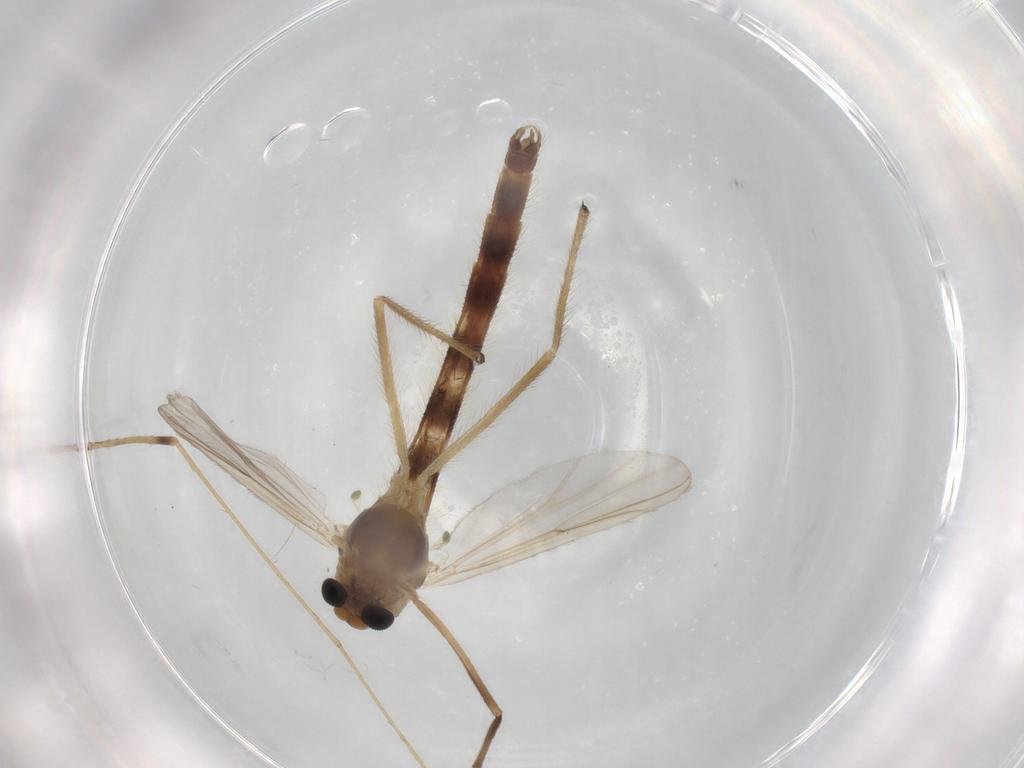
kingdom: Animalia
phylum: Arthropoda
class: Insecta
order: Diptera
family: Chironomidae
